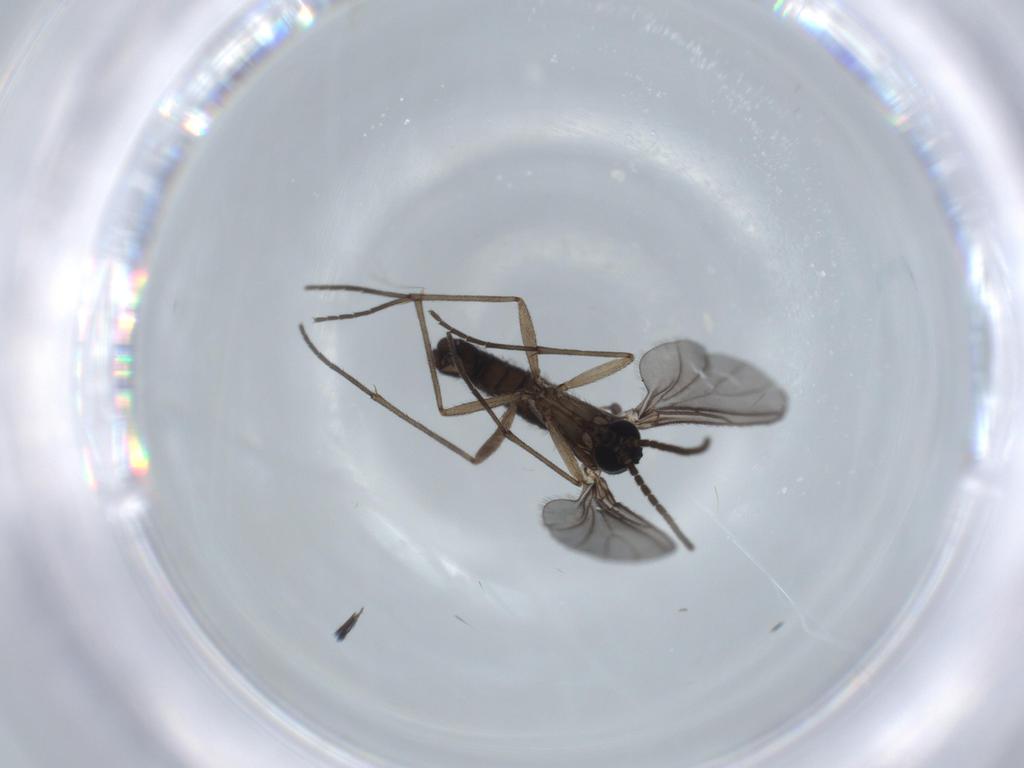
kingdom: Animalia
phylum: Arthropoda
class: Insecta
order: Diptera
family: Sciaridae
